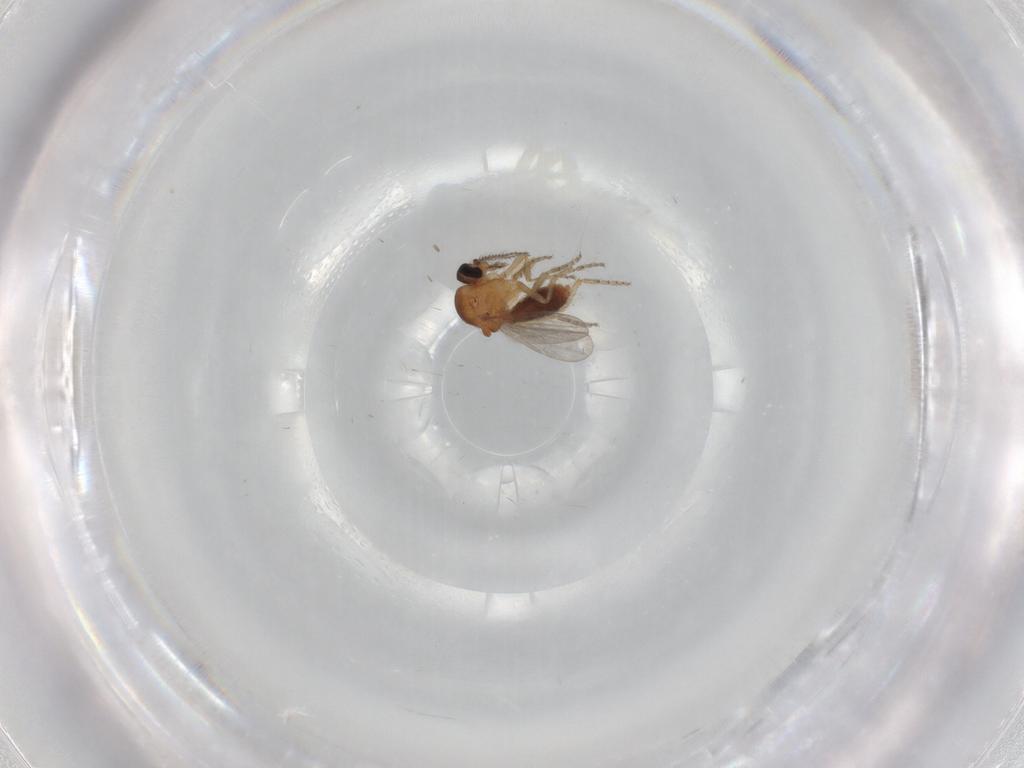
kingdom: Animalia
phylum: Arthropoda
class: Insecta
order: Diptera
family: Ceratopogonidae
